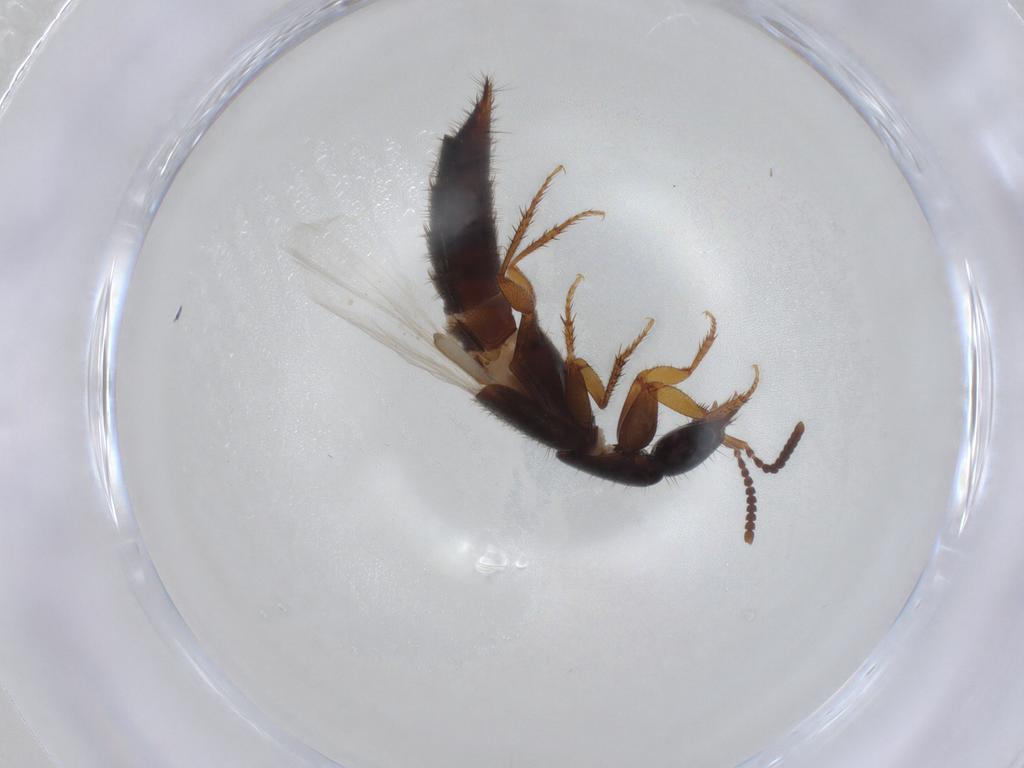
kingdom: Animalia
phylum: Arthropoda
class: Insecta
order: Coleoptera
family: Staphylinidae
